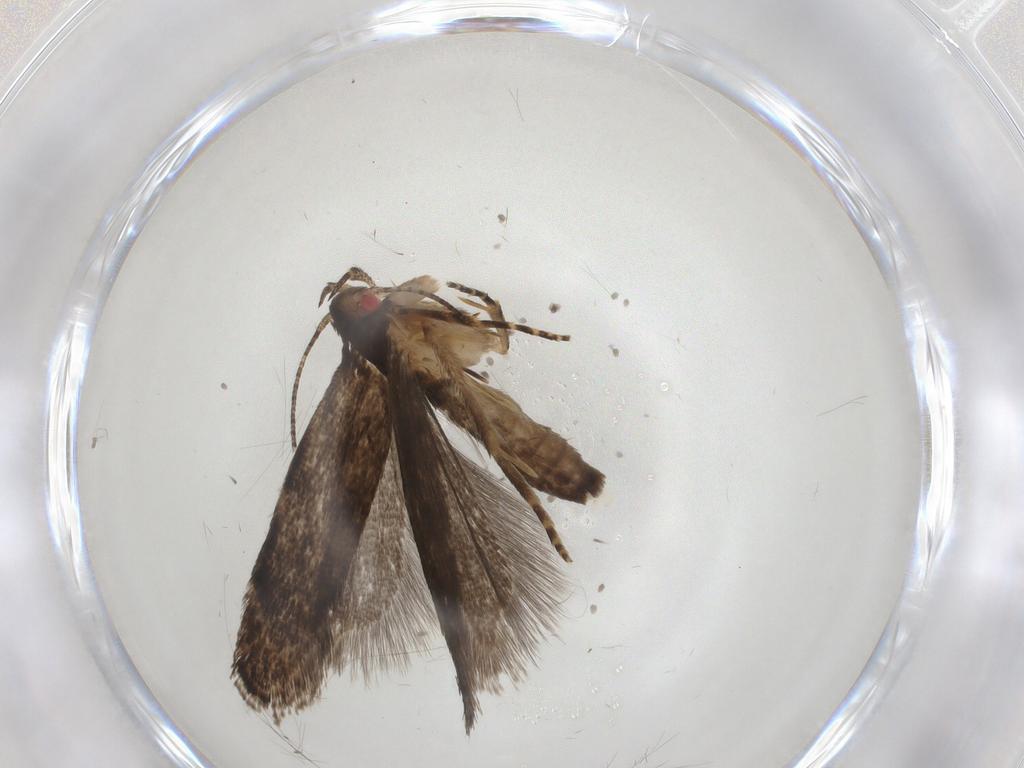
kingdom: Animalia
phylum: Arthropoda
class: Insecta
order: Lepidoptera
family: Gelechiidae
